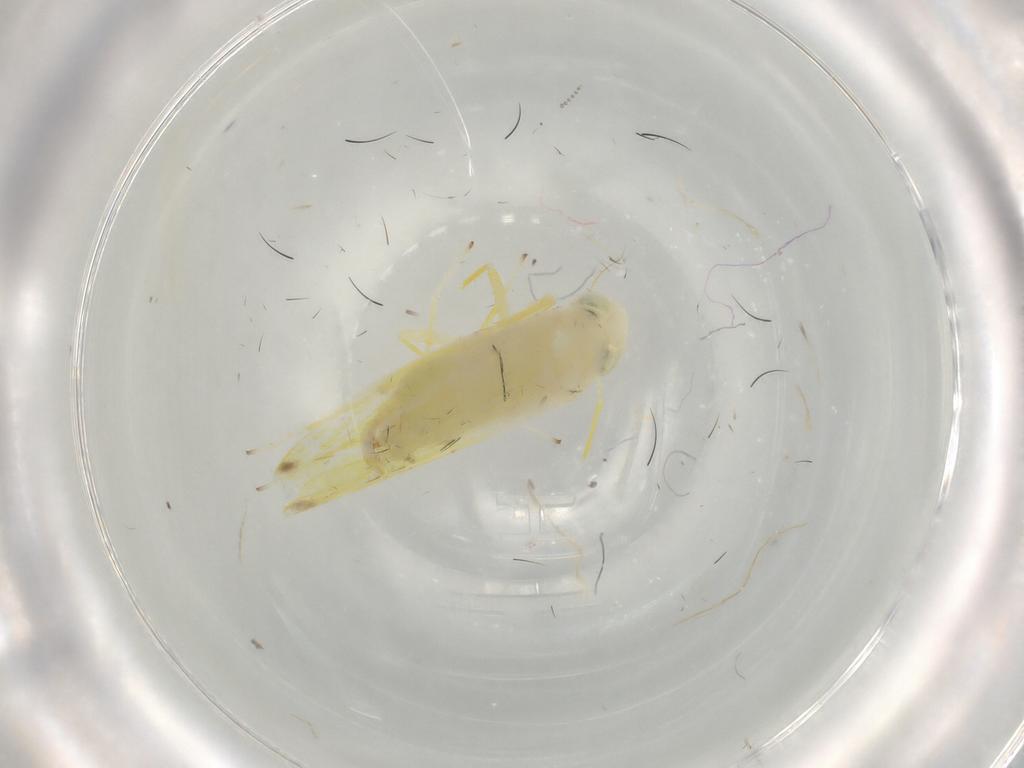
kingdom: Animalia
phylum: Arthropoda
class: Insecta
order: Hemiptera
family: Cicadellidae
